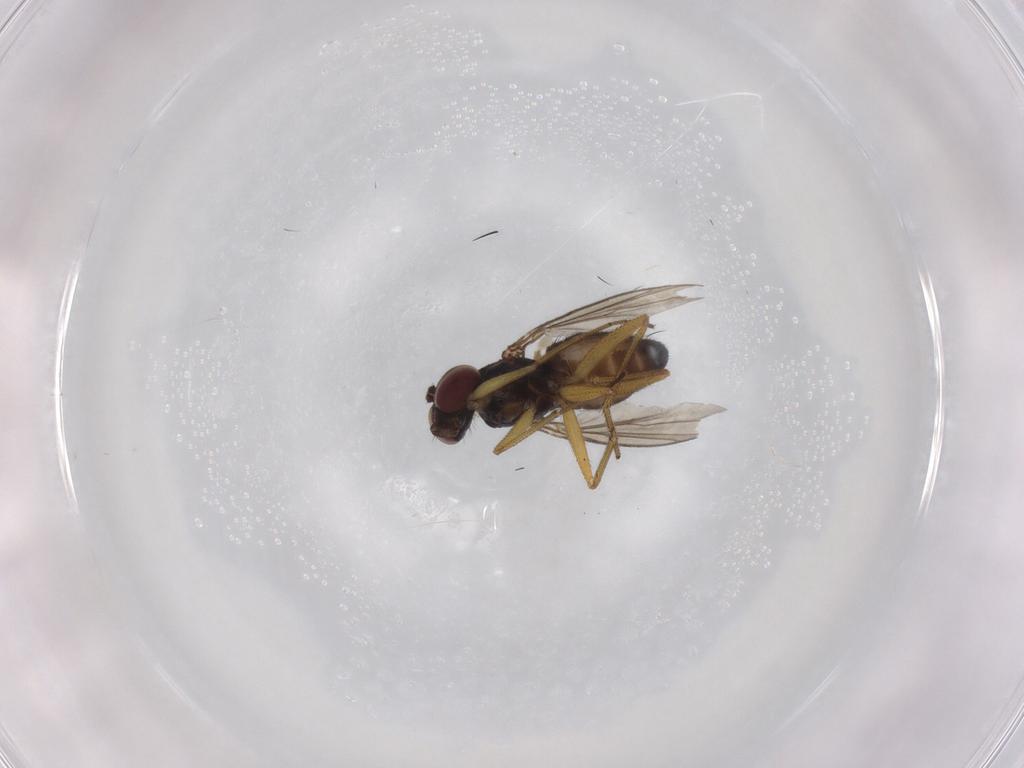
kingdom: Animalia
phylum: Arthropoda
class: Insecta
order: Diptera
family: Dolichopodidae
